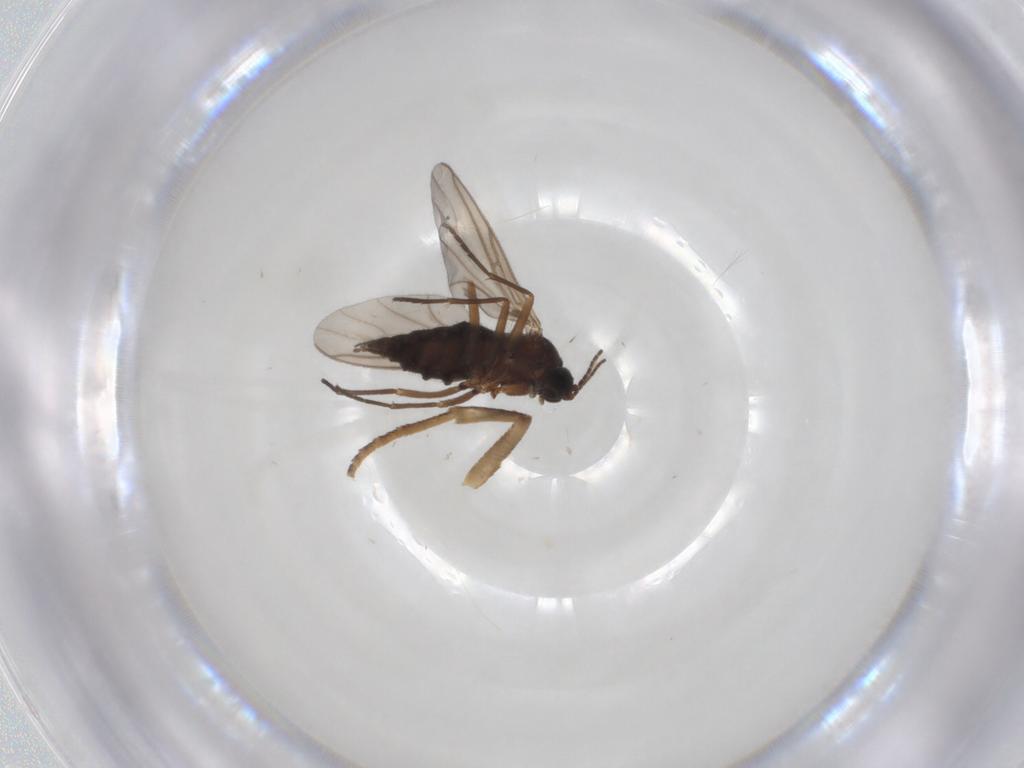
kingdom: Animalia
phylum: Arthropoda
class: Insecta
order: Diptera
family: Sciaridae
